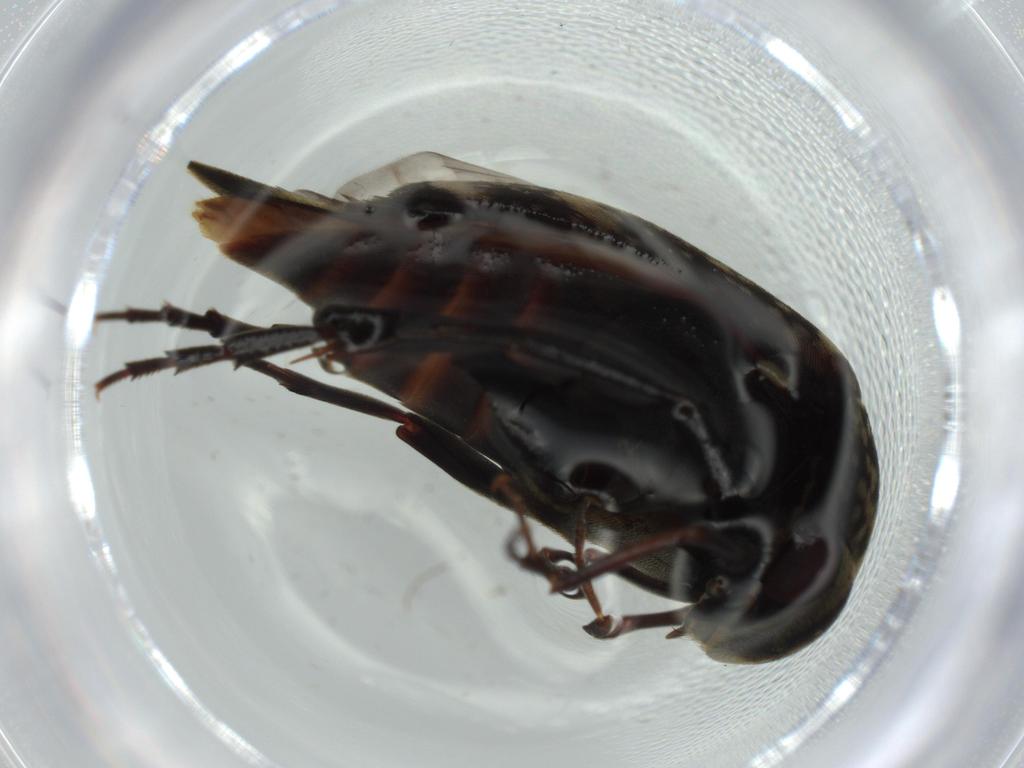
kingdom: Animalia
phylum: Arthropoda
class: Insecta
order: Coleoptera
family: Mordellidae
